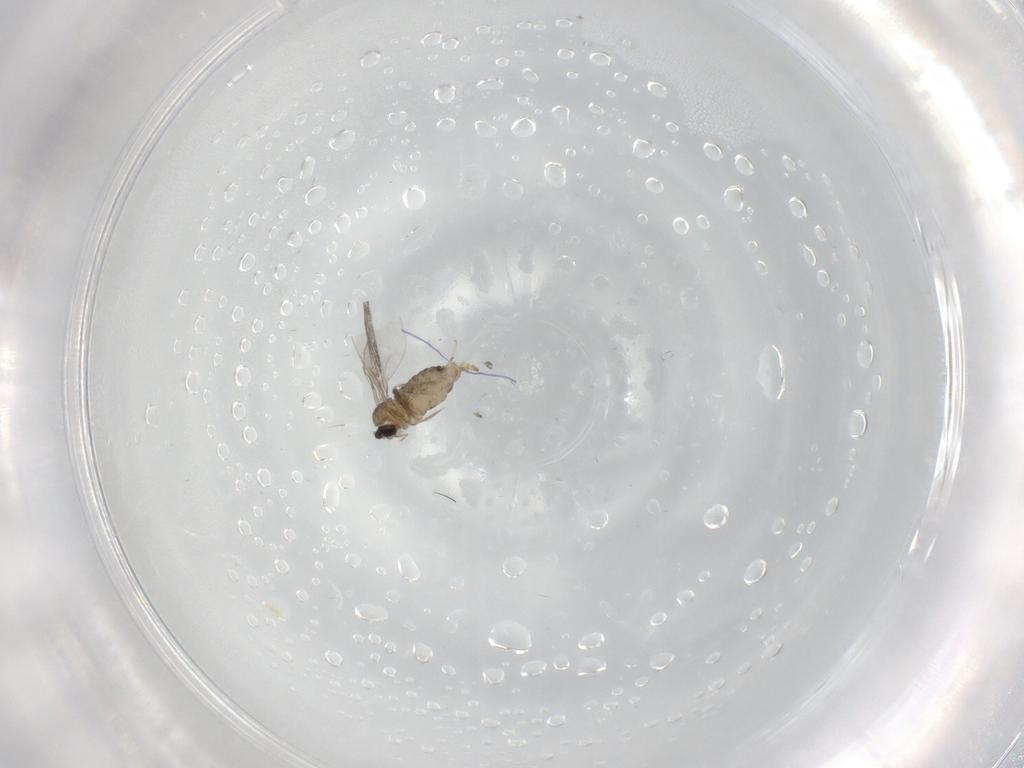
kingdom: Animalia
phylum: Arthropoda
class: Insecta
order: Diptera
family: Cecidomyiidae
